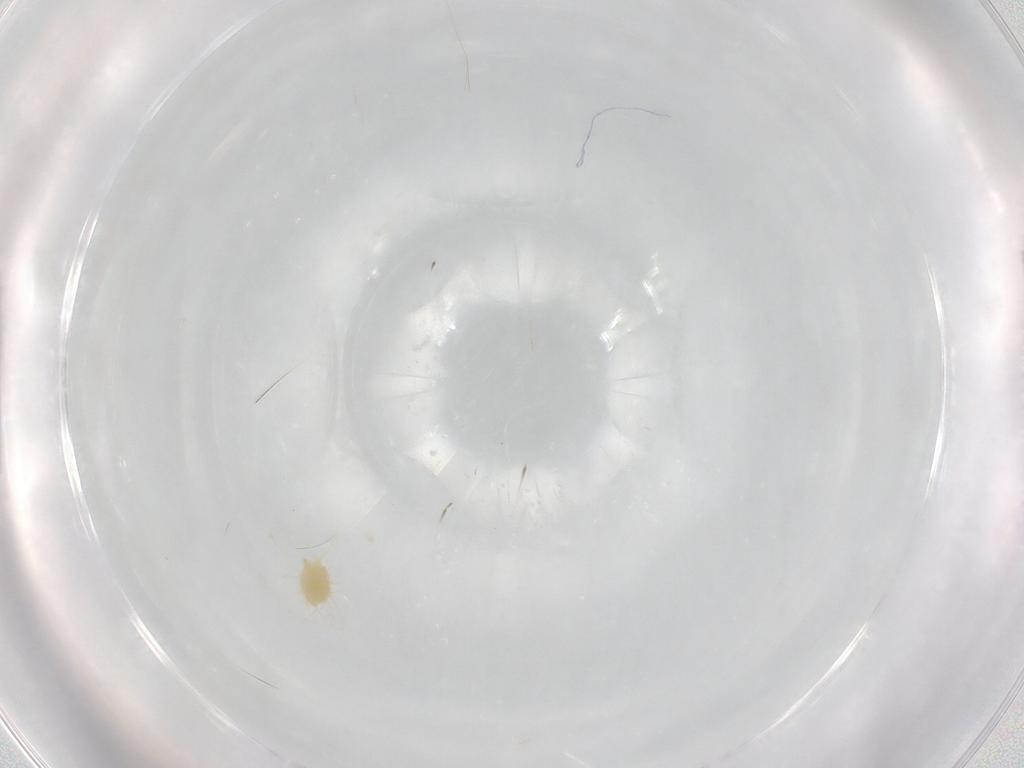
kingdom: Animalia
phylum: Arthropoda
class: Arachnida
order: Trombidiformes
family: Tetranychidae
